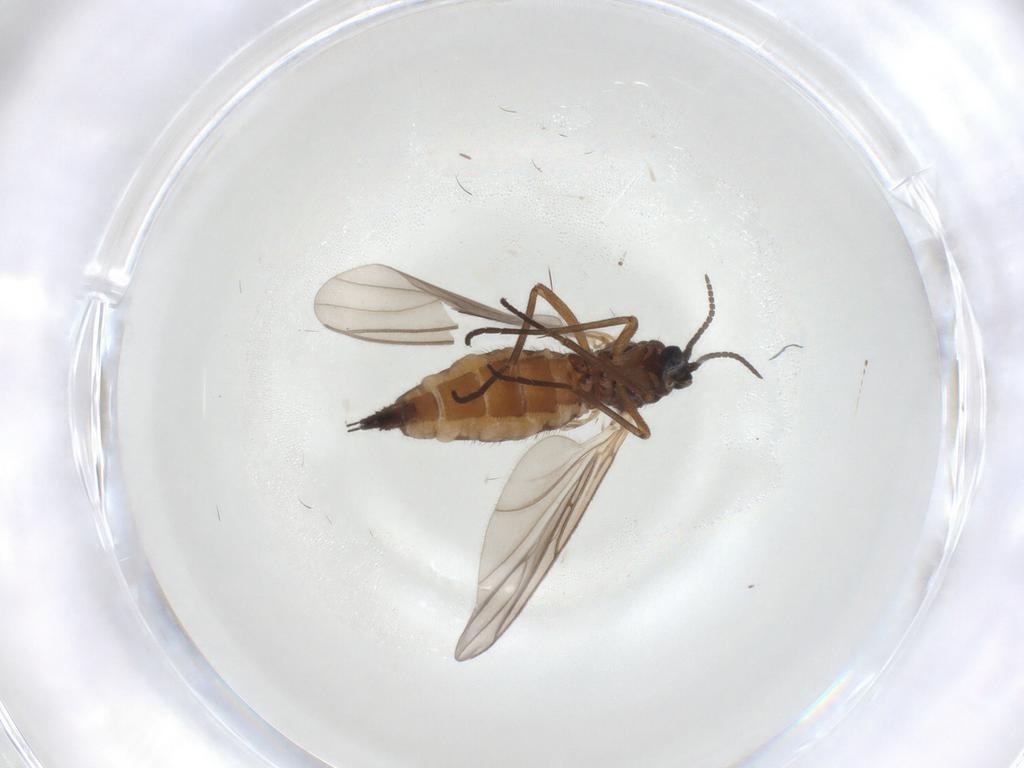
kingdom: Animalia
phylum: Arthropoda
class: Insecta
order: Diptera
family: Sciaridae
